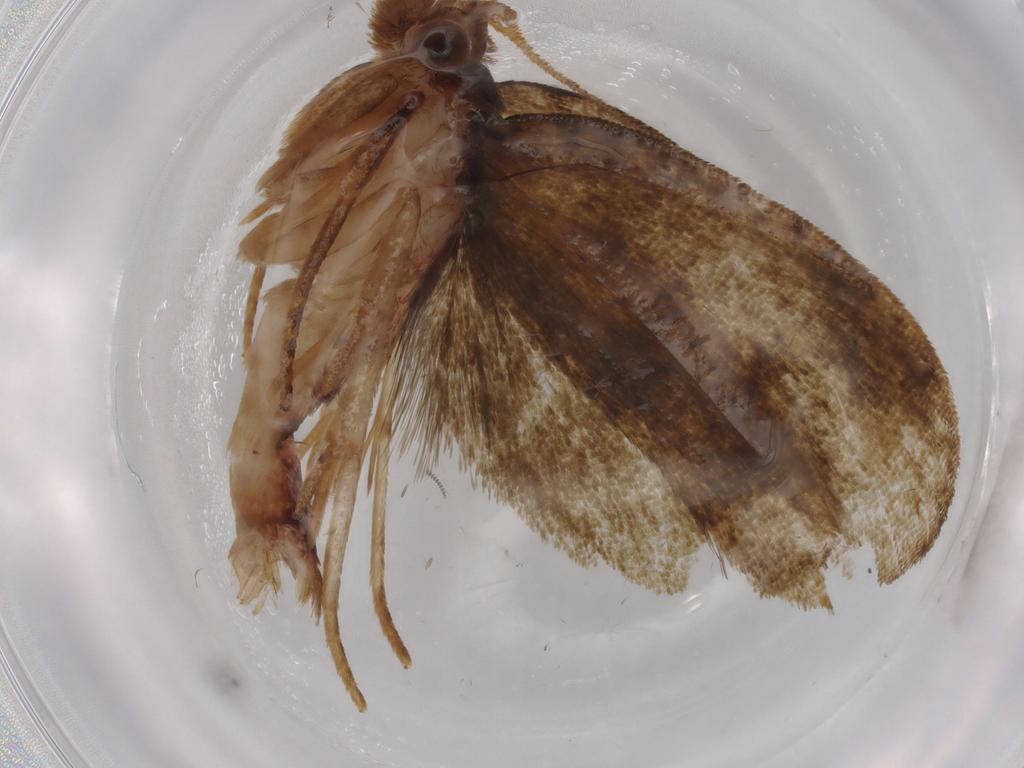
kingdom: Animalia
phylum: Arthropoda
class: Insecta
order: Lepidoptera
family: Geometridae
